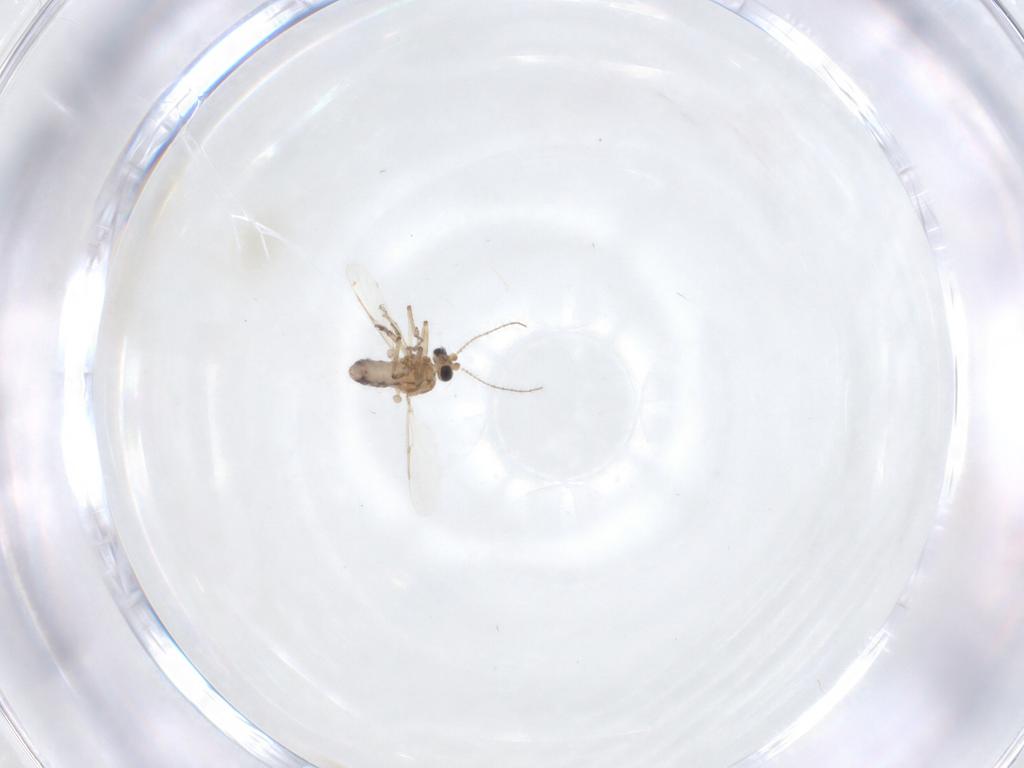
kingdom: Animalia
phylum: Arthropoda
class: Insecta
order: Diptera
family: Ceratopogonidae
